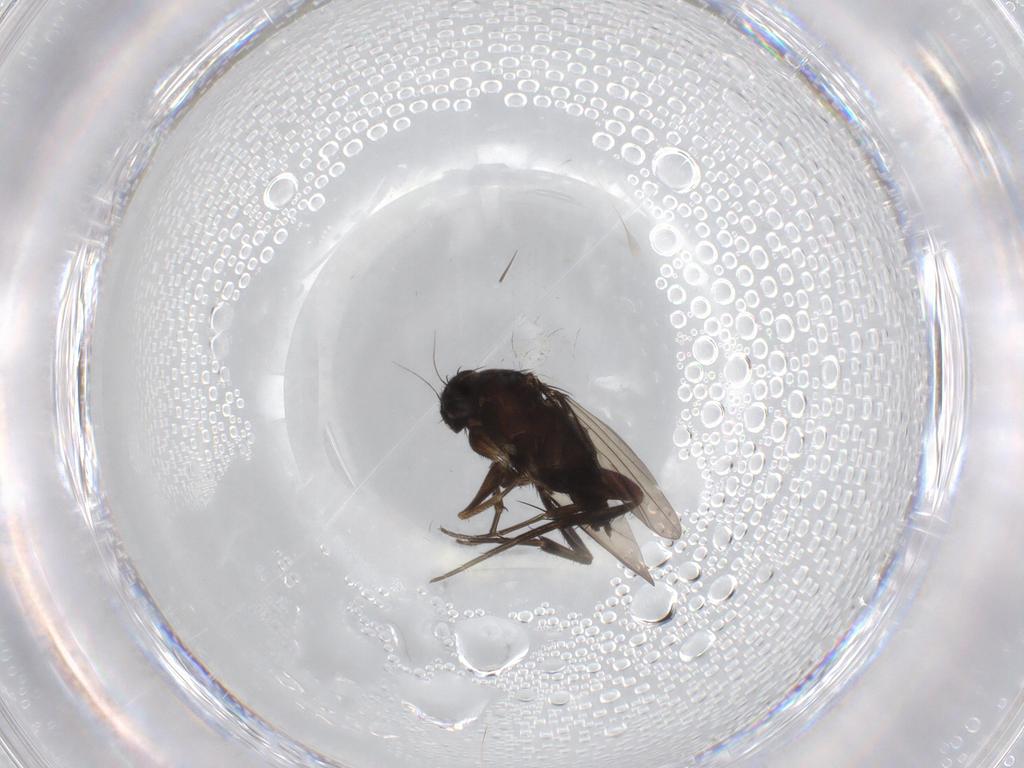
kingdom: Animalia
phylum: Arthropoda
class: Insecta
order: Diptera
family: Phoridae
